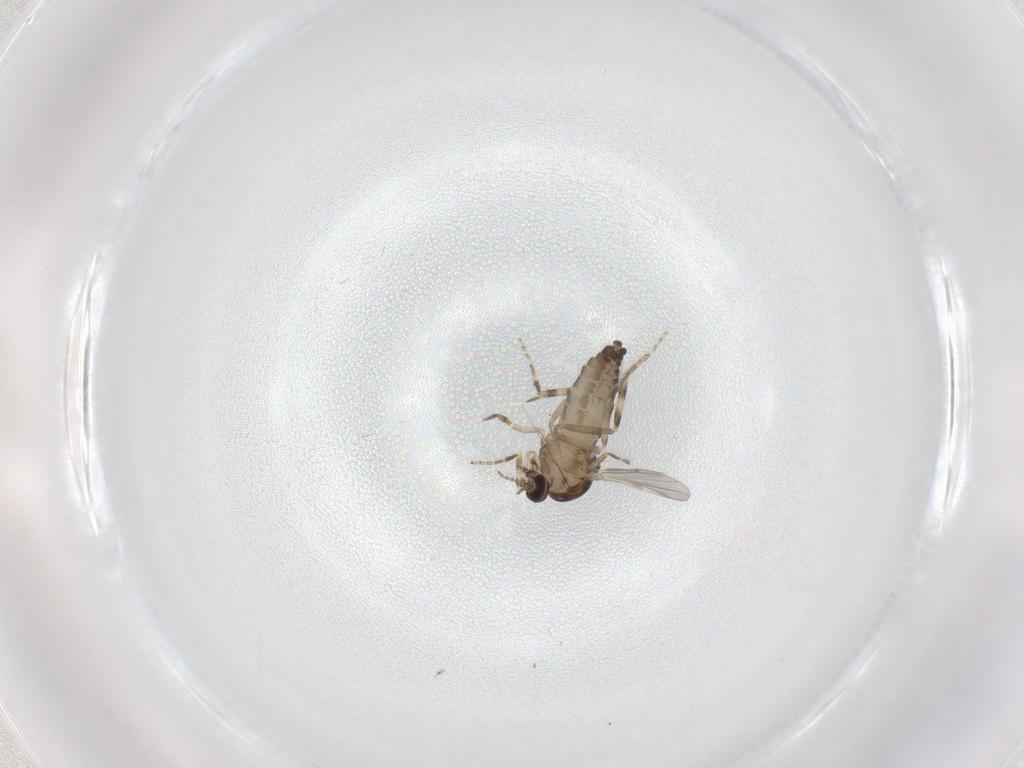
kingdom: Animalia
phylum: Arthropoda
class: Insecta
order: Diptera
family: Ceratopogonidae
